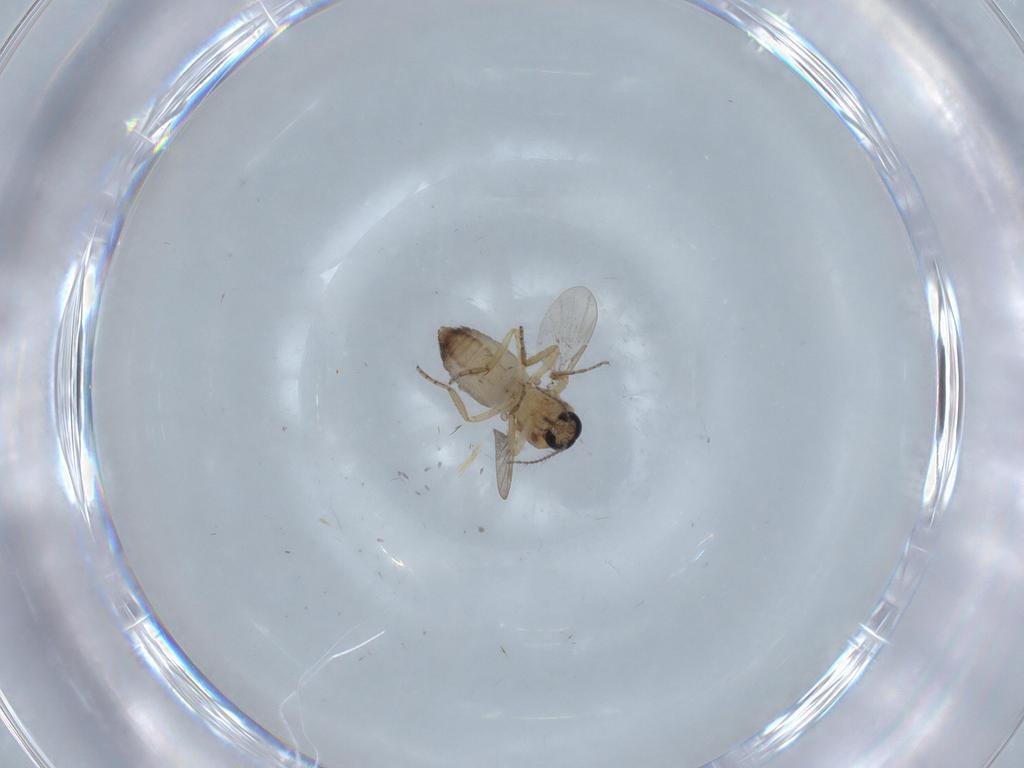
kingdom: Animalia
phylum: Arthropoda
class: Insecta
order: Diptera
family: Ceratopogonidae
